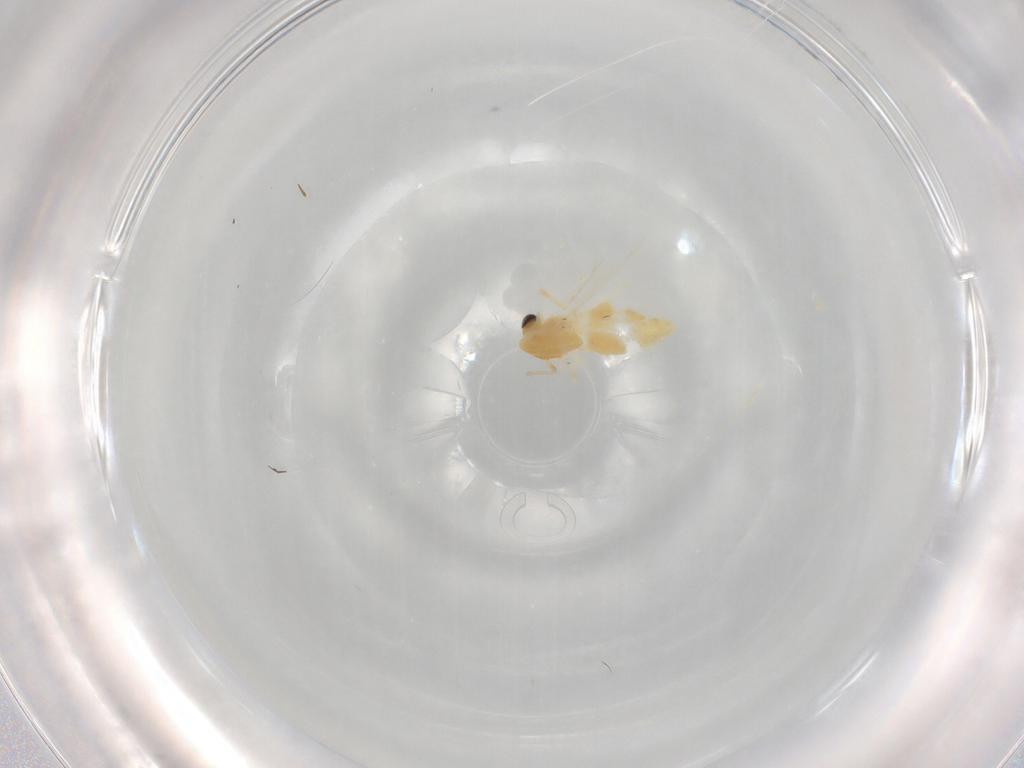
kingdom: Animalia
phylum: Arthropoda
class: Insecta
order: Diptera
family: Chironomidae
